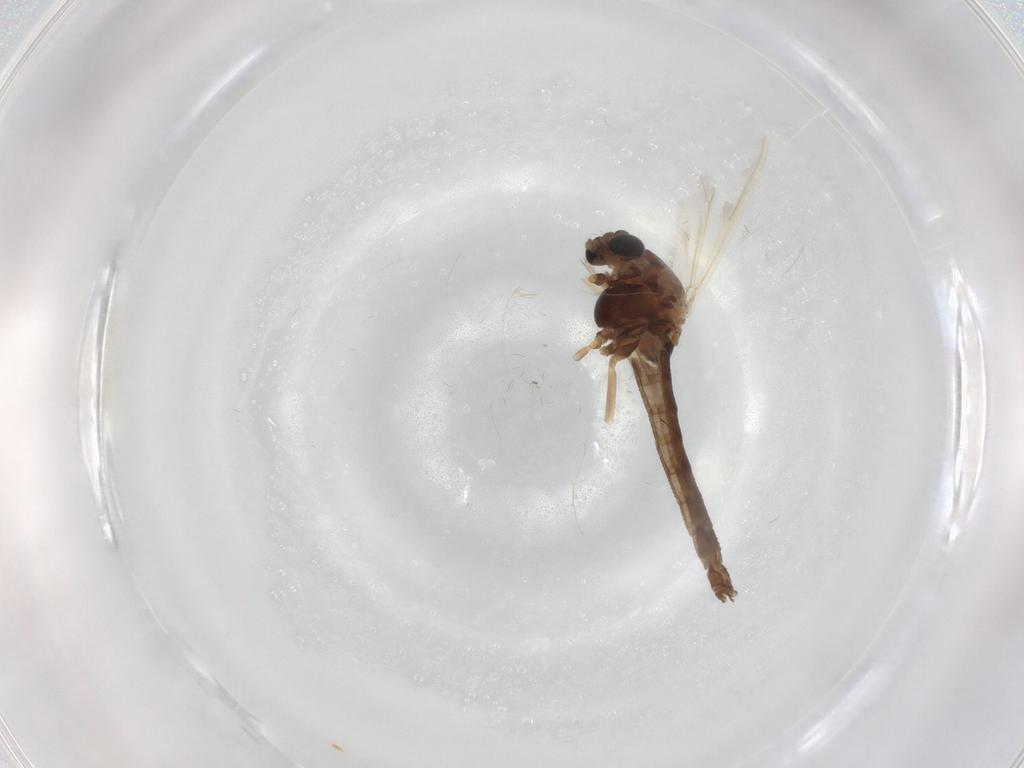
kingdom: Animalia
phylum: Arthropoda
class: Insecta
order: Diptera
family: Chironomidae
